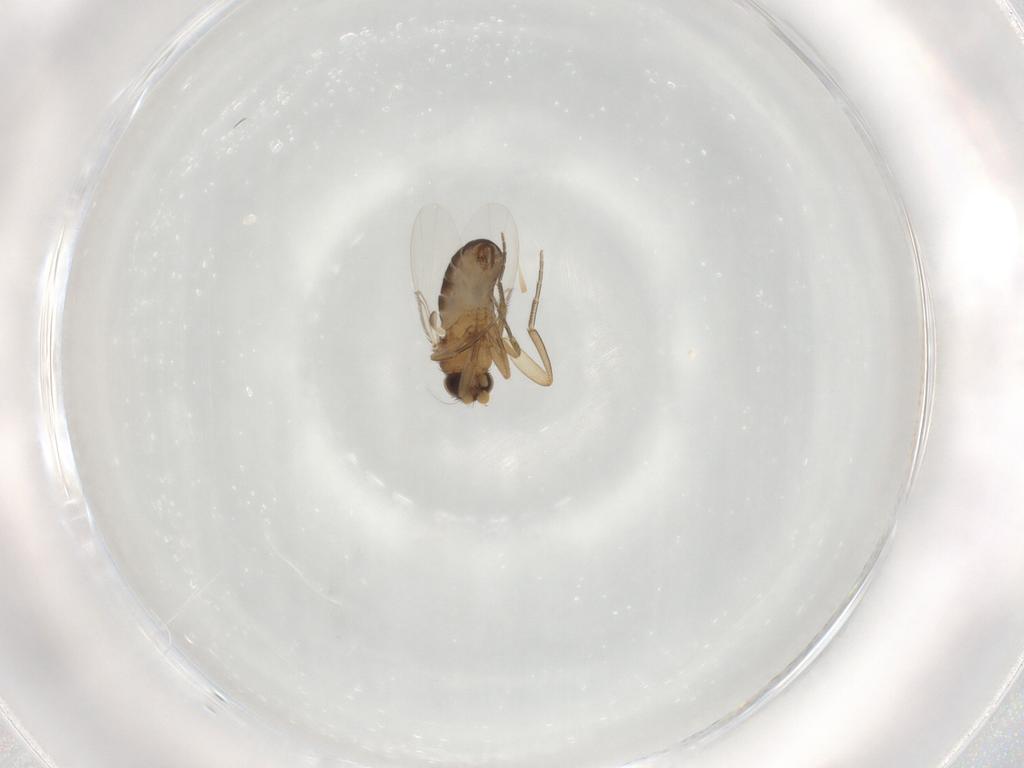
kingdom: Animalia
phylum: Arthropoda
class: Insecta
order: Diptera
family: Phoridae
